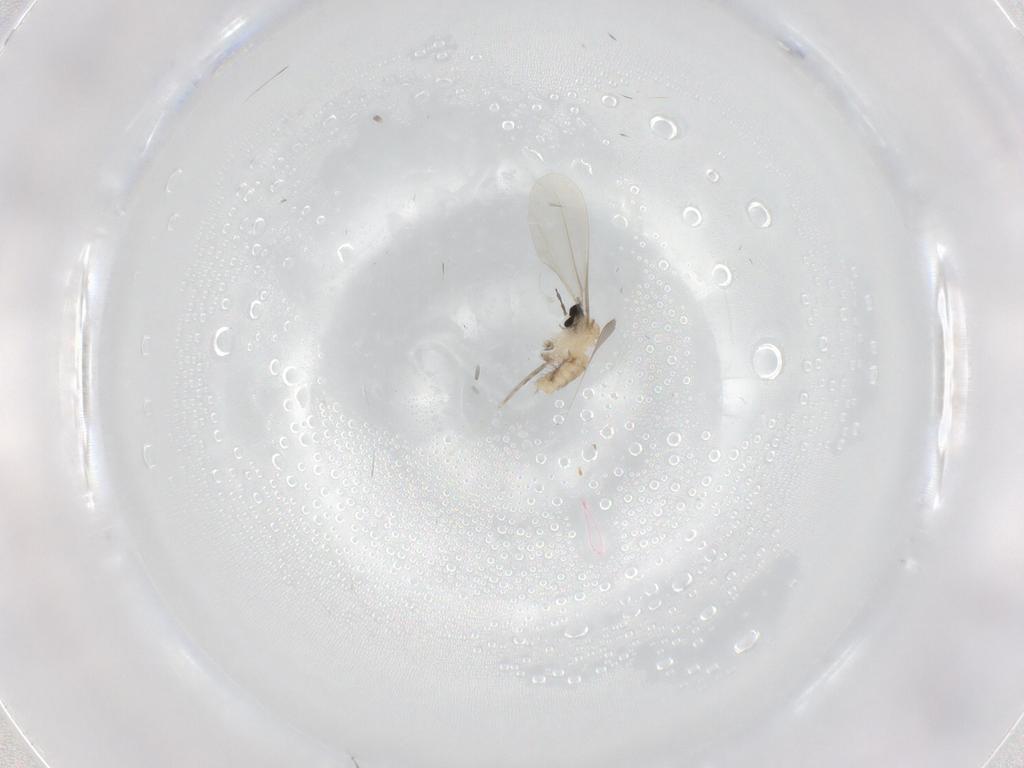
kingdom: Animalia
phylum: Arthropoda
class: Insecta
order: Diptera
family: Cecidomyiidae
